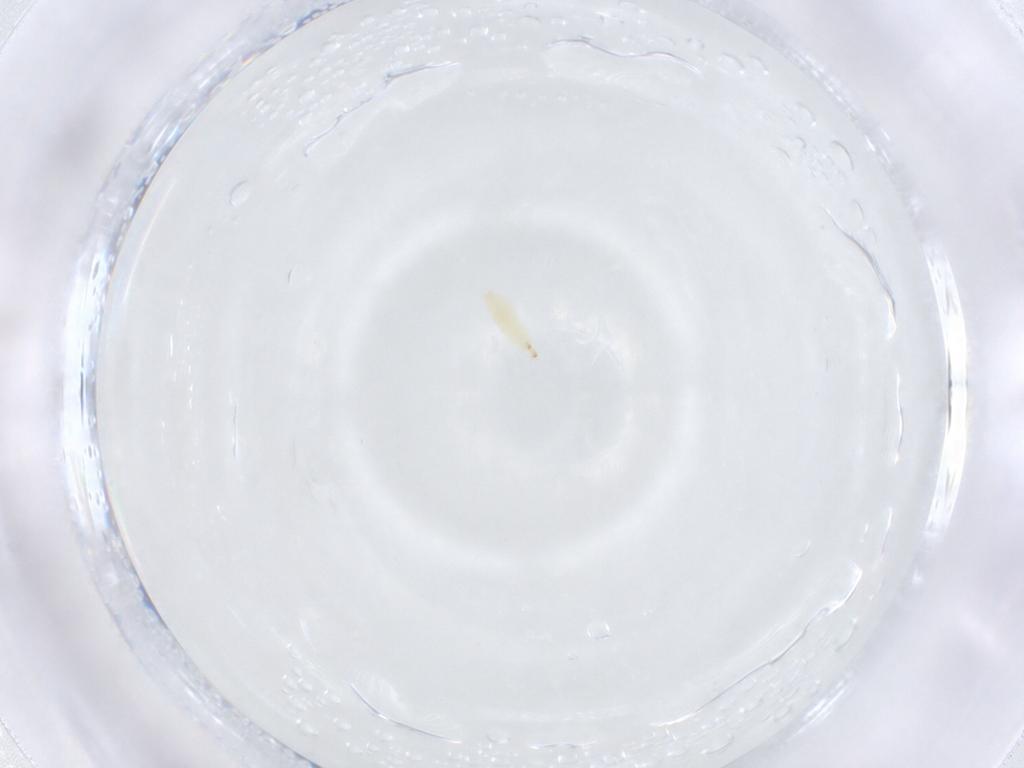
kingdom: Animalia
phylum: Arthropoda
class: Insecta
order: Diptera
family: Sarcophagidae
